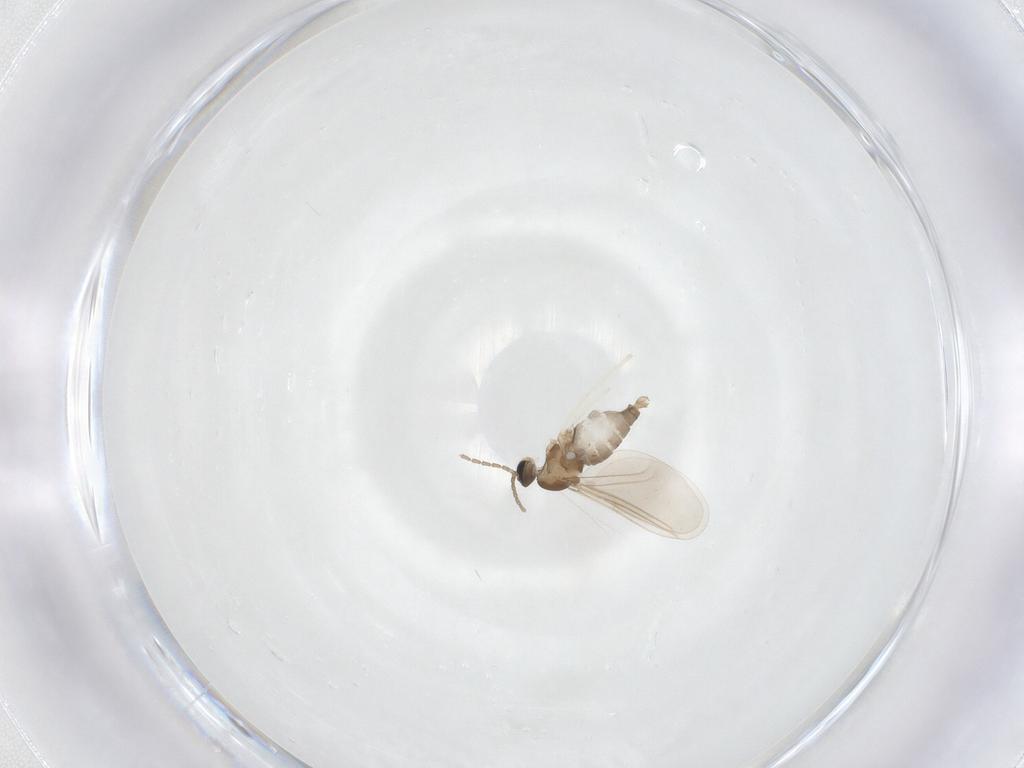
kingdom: Animalia
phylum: Arthropoda
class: Insecta
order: Diptera
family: Cecidomyiidae
